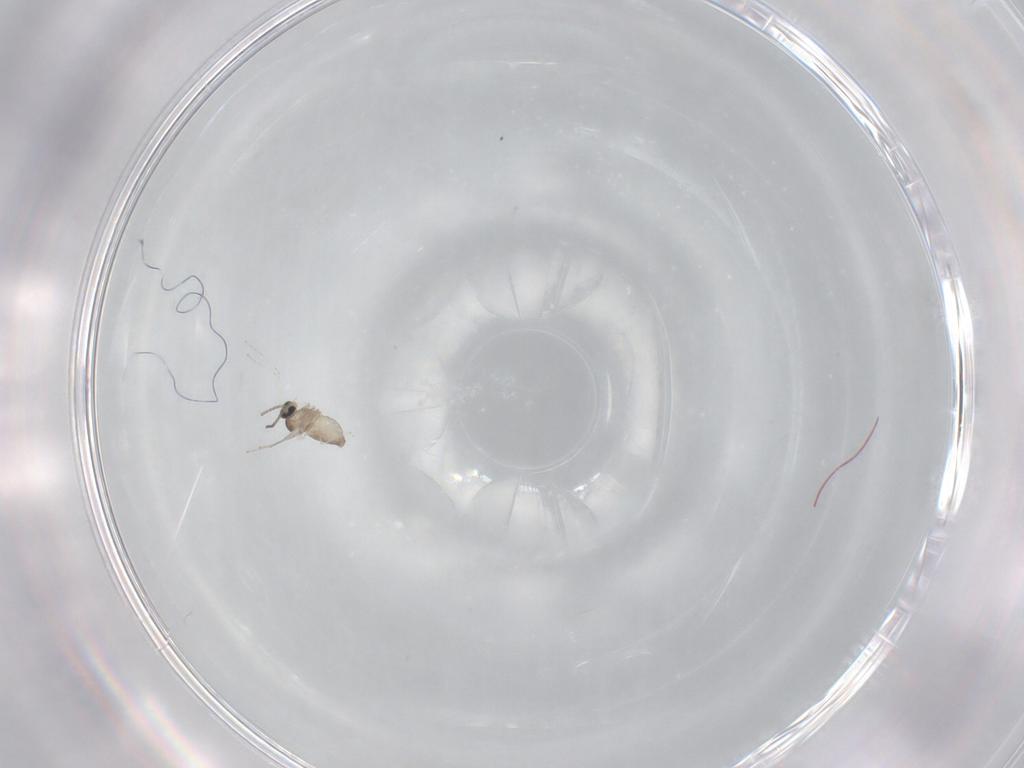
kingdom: Animalia
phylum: Arthropoda
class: Insecta
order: Diptera
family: Cecidomyiidae
